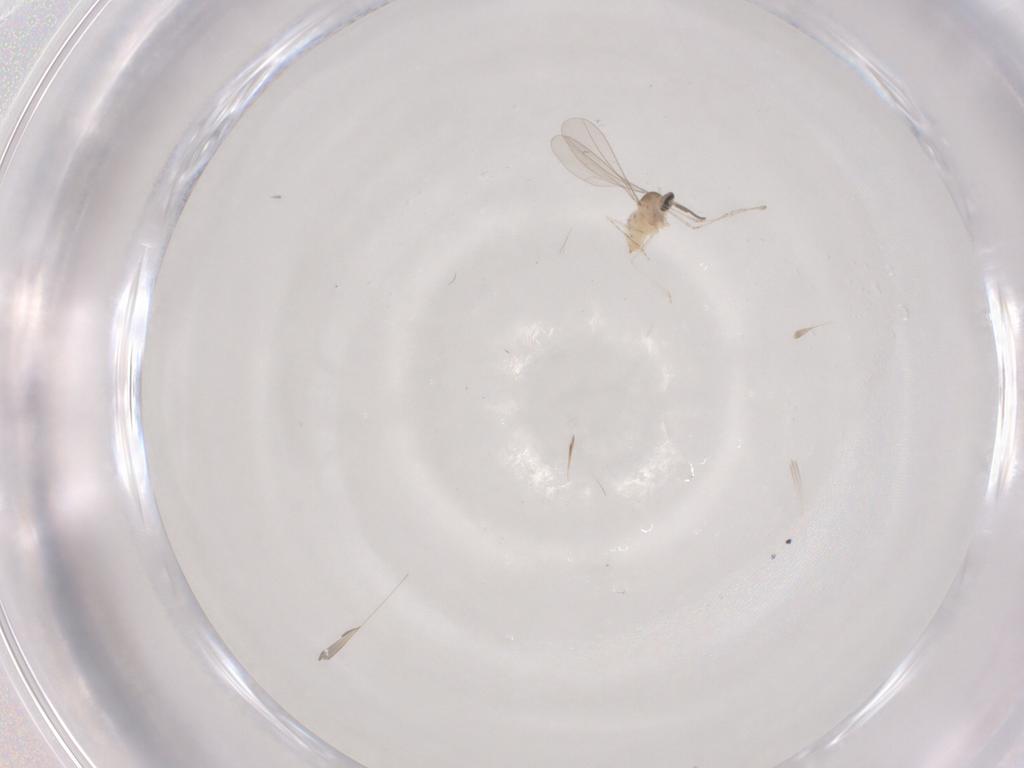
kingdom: Animalia
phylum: Arthropoda
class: Insecta
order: Diptera
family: Cecidomyiidae
